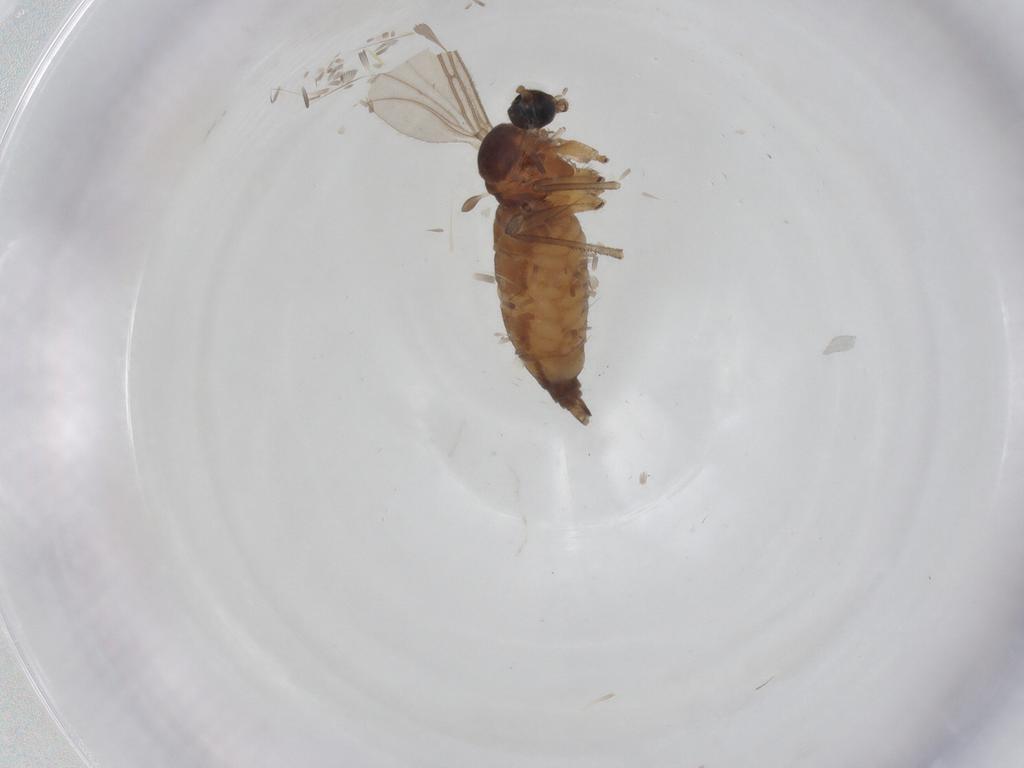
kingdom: Animalia
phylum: Arthropoda
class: Insecta
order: Diptera
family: Sciaridae
